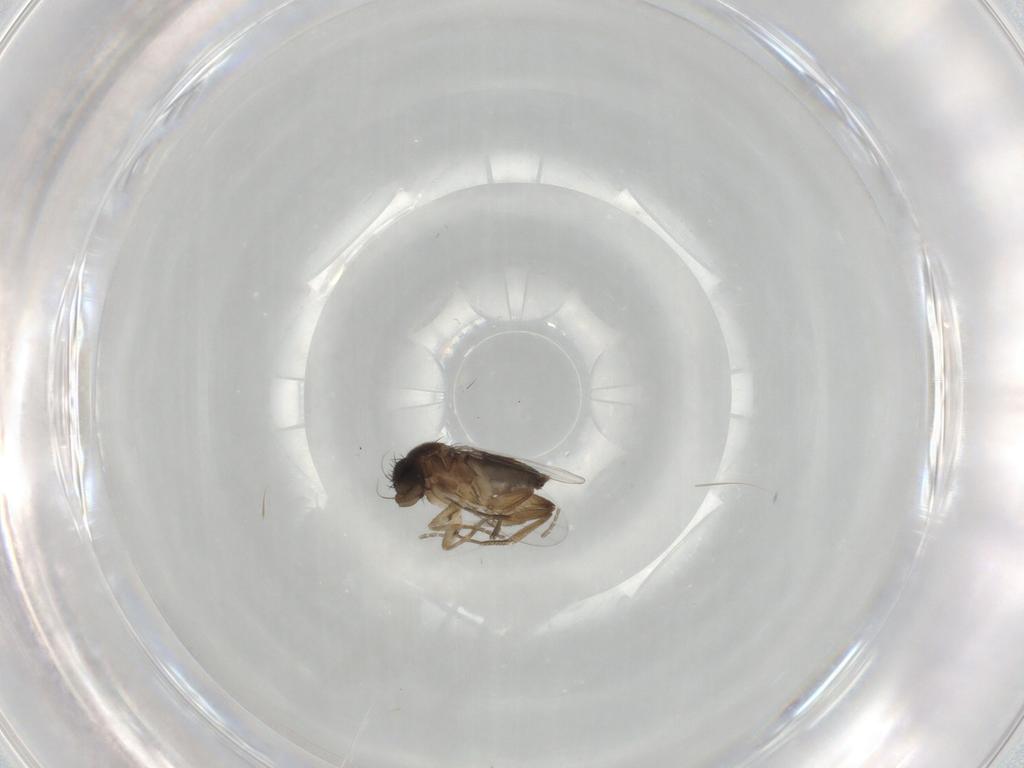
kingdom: Animalia
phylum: Arthropoda
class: Insecta
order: Diptera
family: Phoridae
